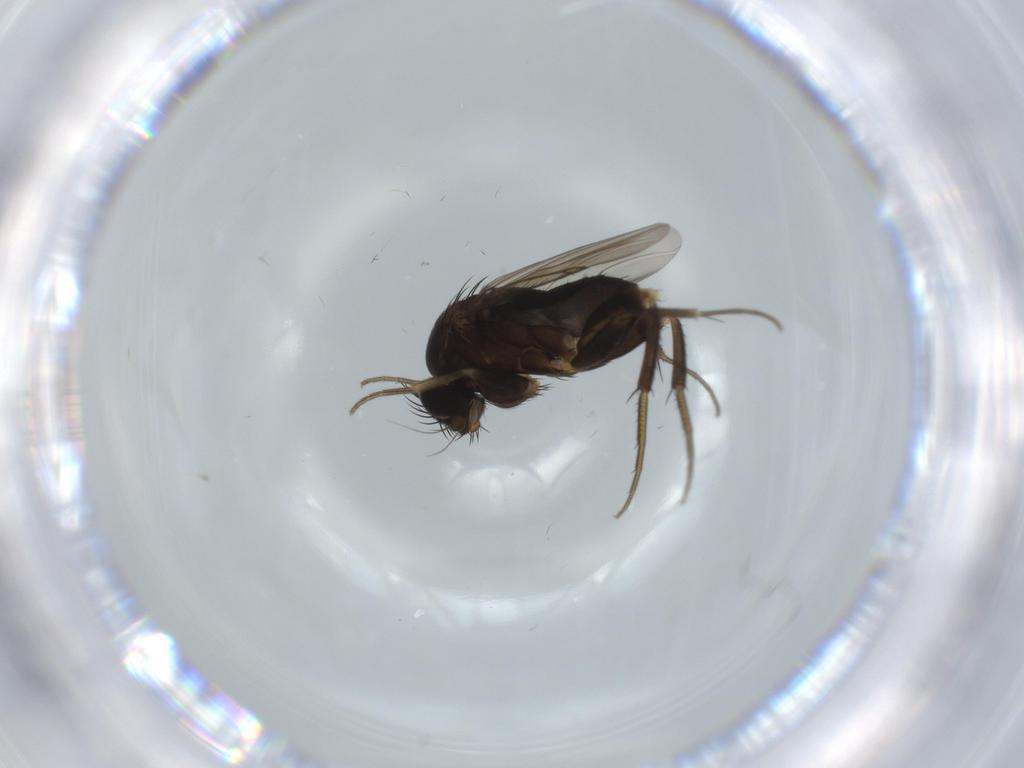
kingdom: Animalia
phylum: Arthropoda
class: Insecta
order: Diptera
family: Phoridae
